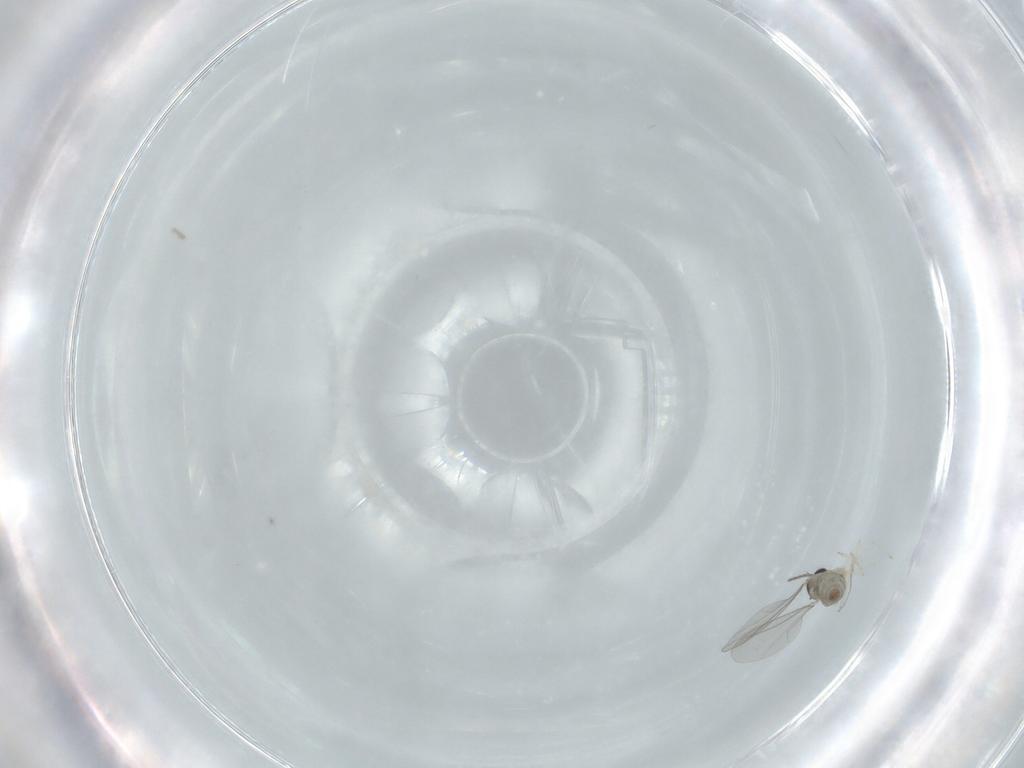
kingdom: Animalia
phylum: Arthropoda
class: Insecta
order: Diptera
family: Cecidomyiidae
